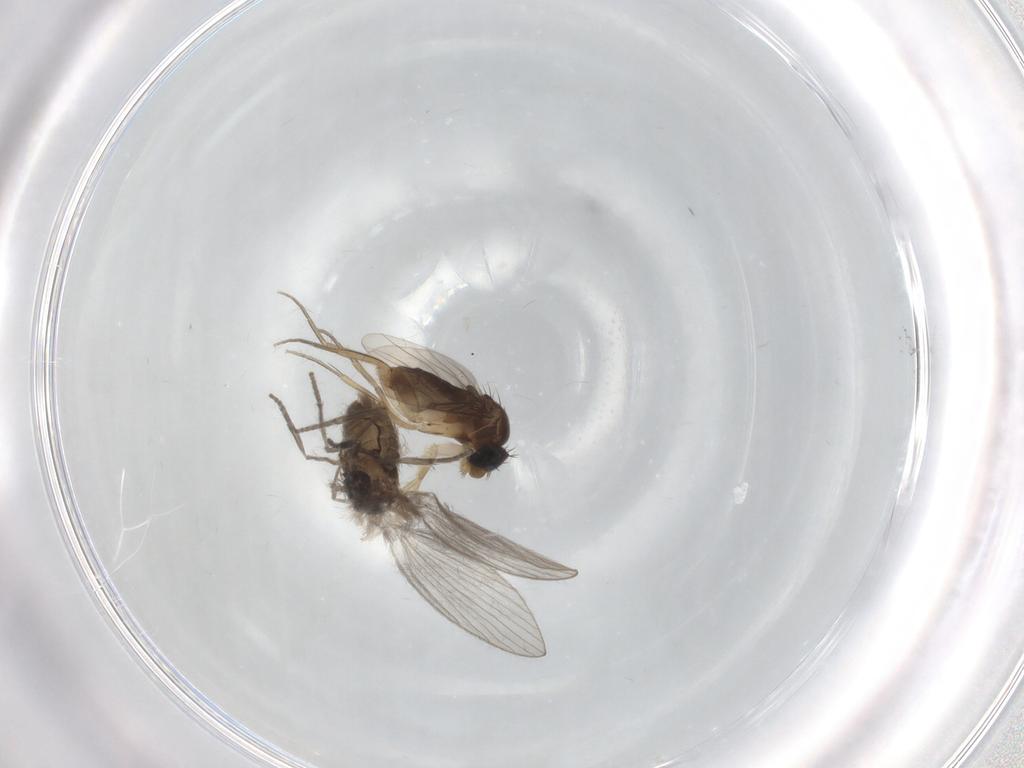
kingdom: Animalia
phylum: Arthropoda
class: Insecta
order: Diptera
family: Psychodidae
